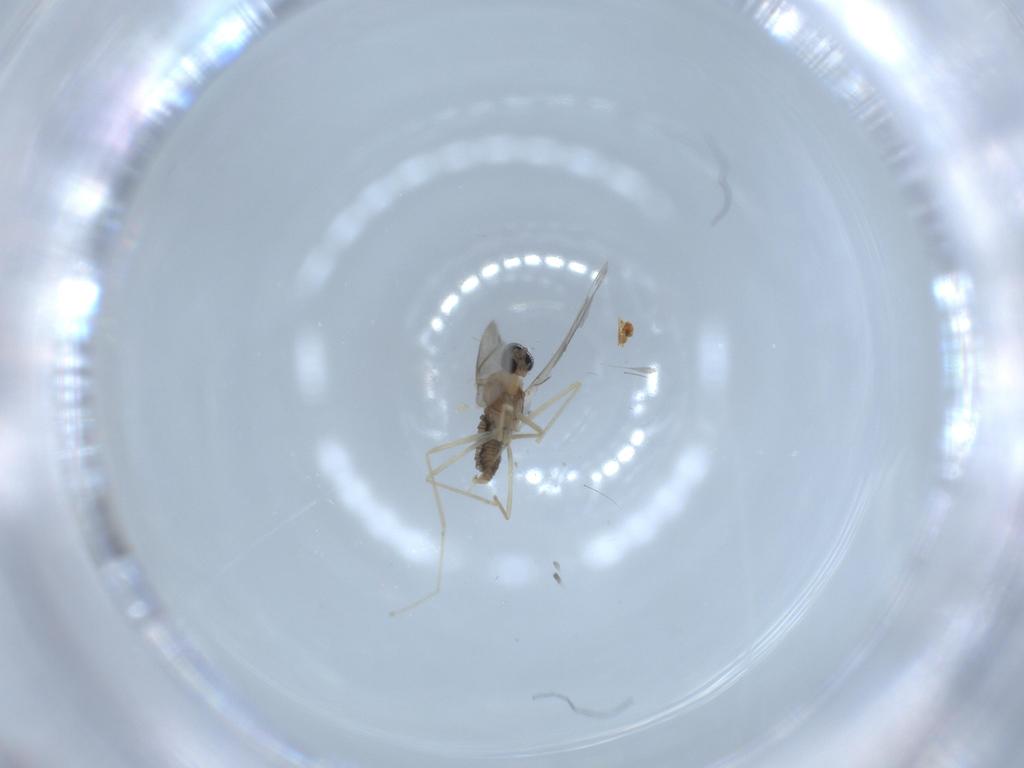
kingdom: Animalia
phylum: Arthropoda
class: Insecta
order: Diptera
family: Cecidomyiidae
